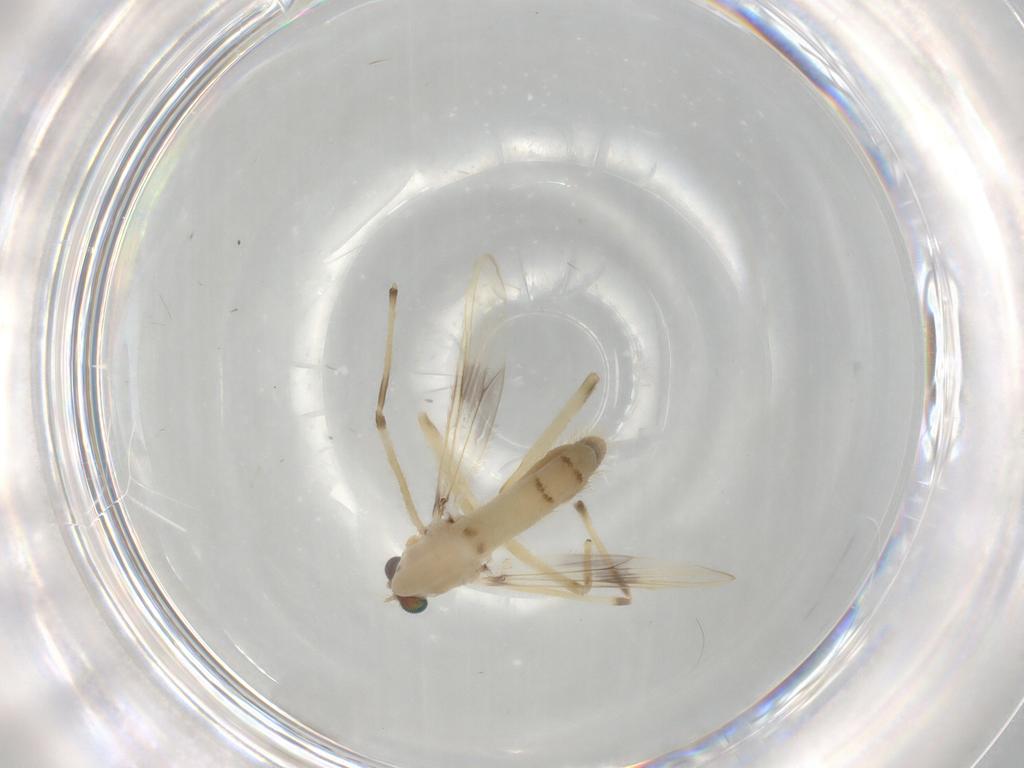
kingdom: Animalia
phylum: Arthropoda
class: Insecta
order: Diptera
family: Chironomidae
